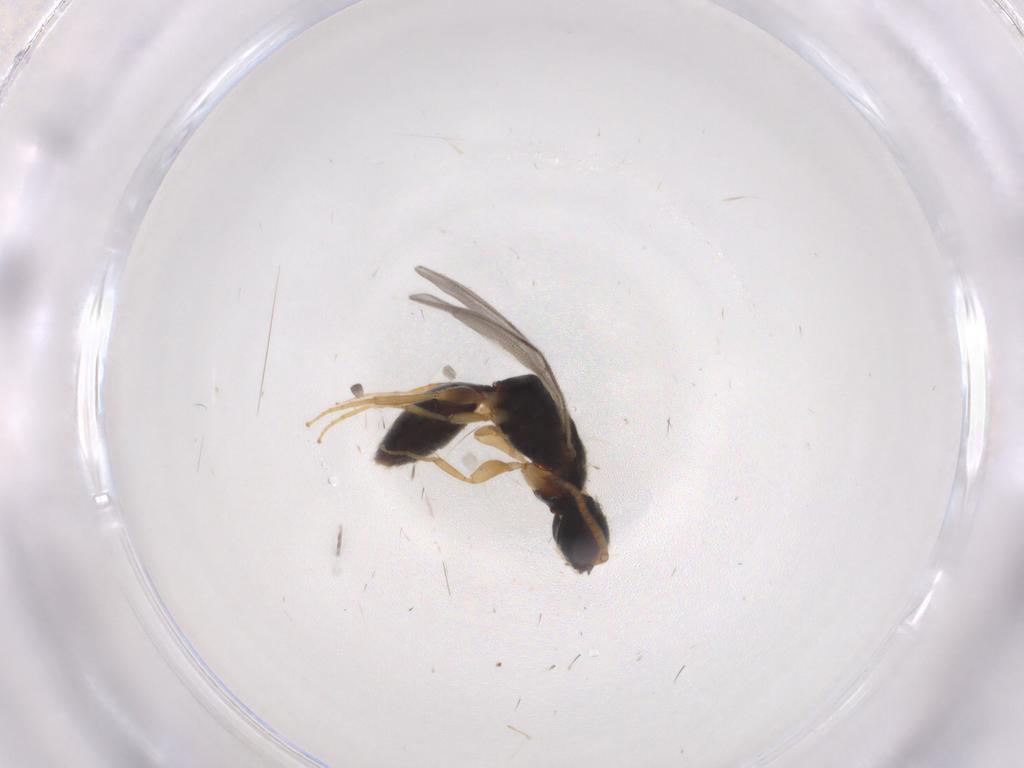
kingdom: Animalia
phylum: Arthropoda
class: Insecta
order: Hymenoptera
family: Bethylidae
